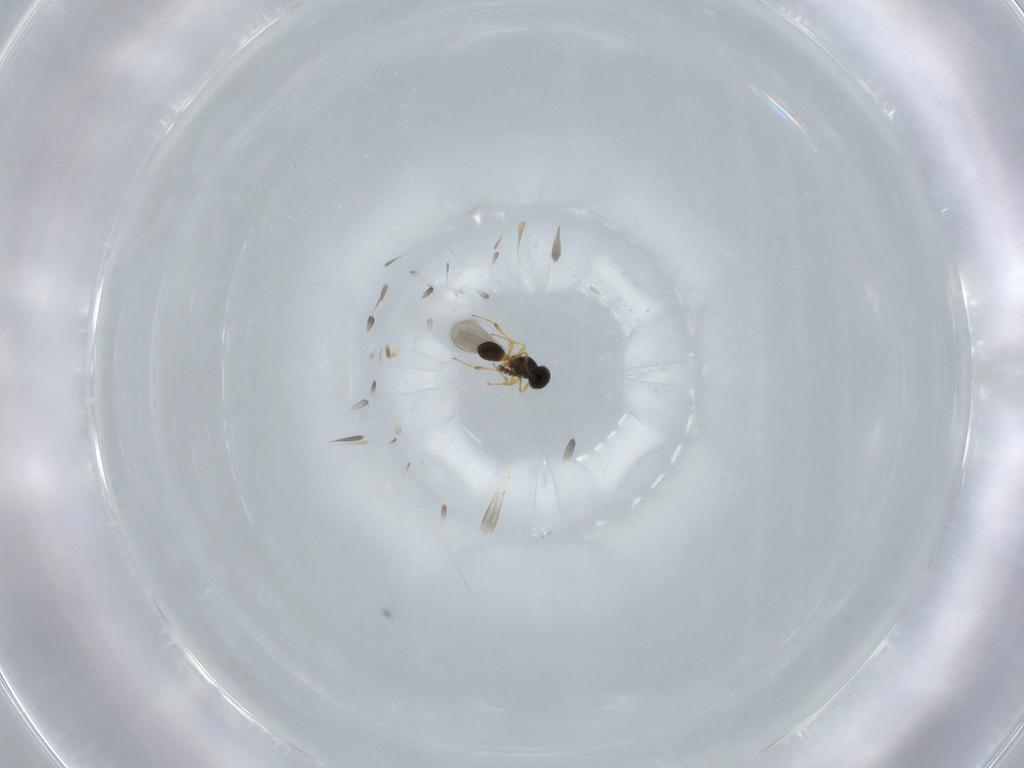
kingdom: Animalia
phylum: Arthropoda
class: Insecta
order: Hymenoptera
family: Platygastridae
